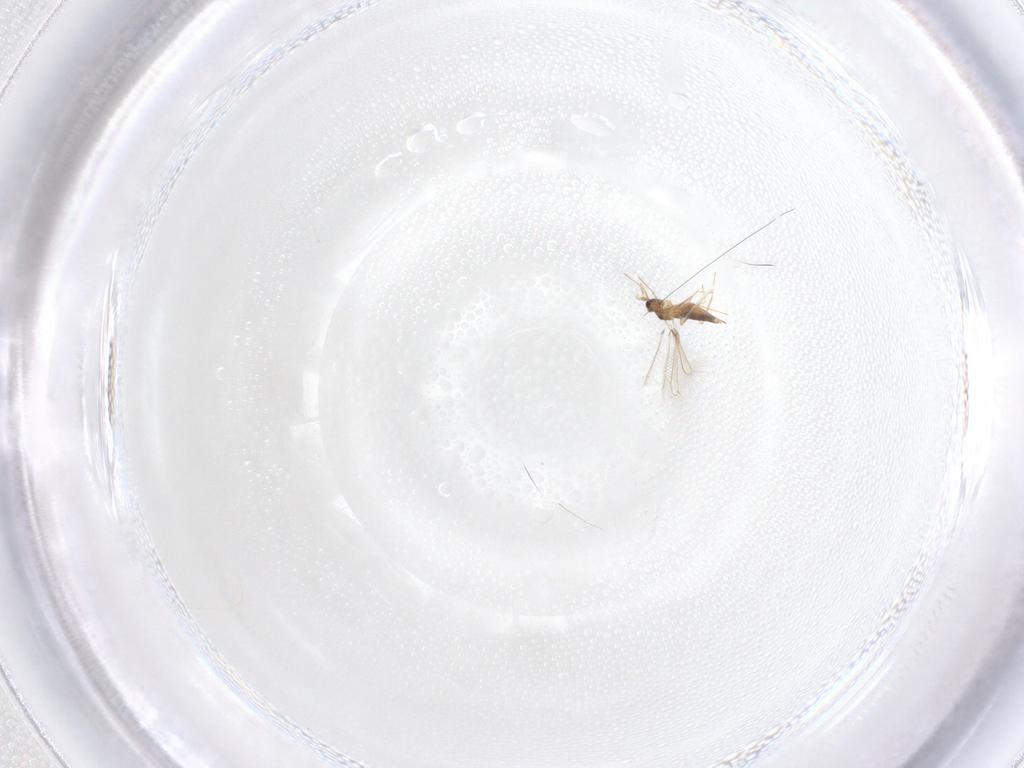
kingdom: Animalia
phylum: Arthropoda
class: Insecta
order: Hymenoptera
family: Mymaridae
